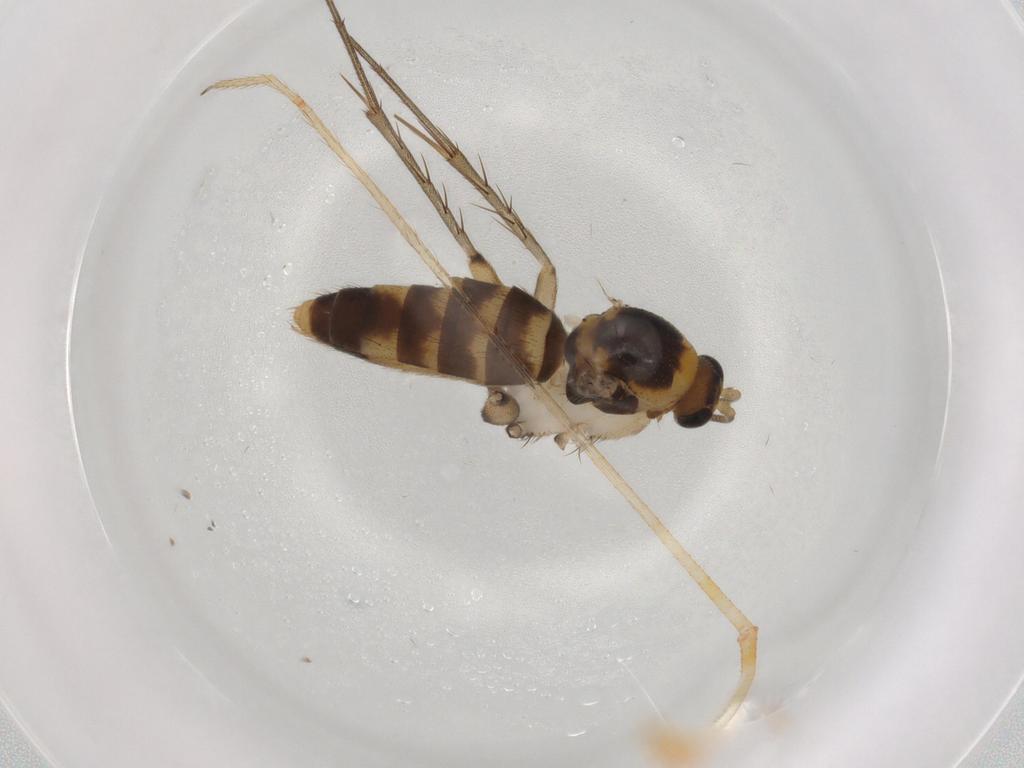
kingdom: Animalia
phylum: Arthropoda
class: Insecta
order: Diptera
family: Mycetophilidae
